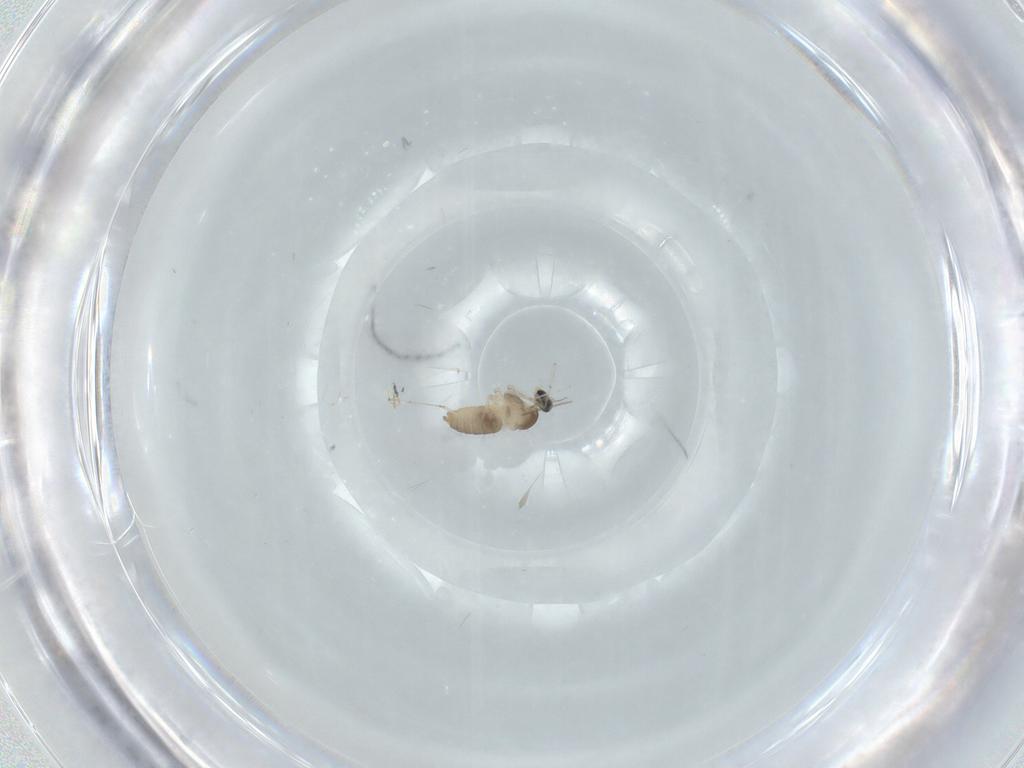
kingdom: Animalia
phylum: Arthropoda
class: Insecta
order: Diptera
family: Cecidomyiidae
